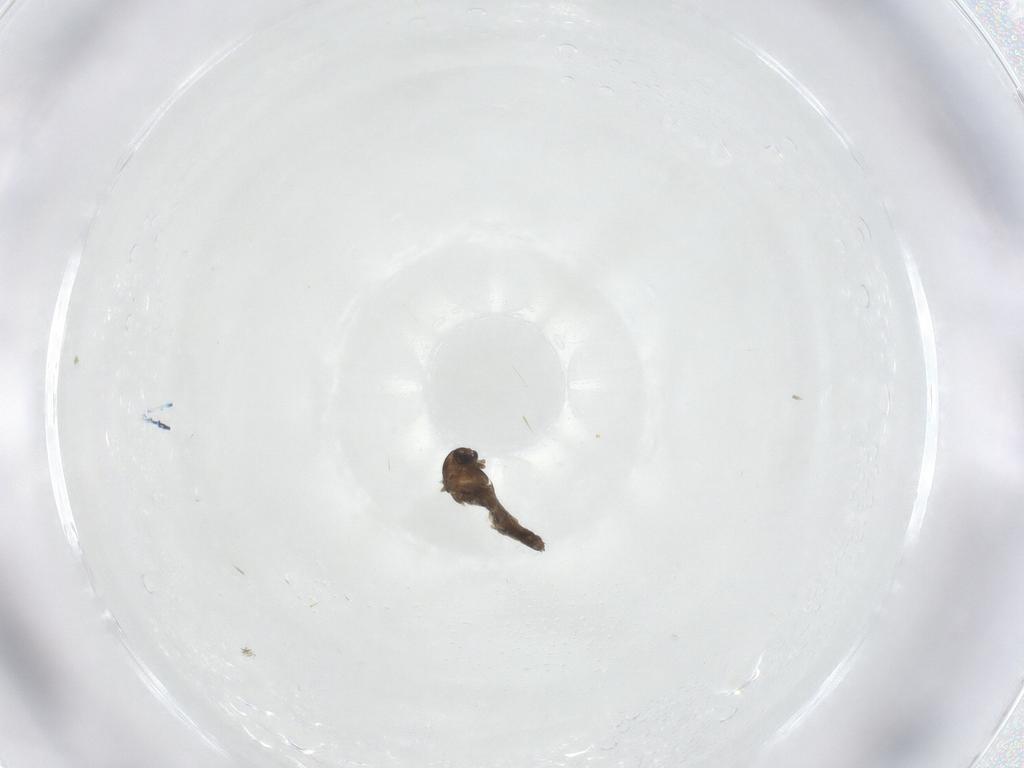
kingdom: Animalia
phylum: Arthropoda
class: Insecta
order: Diptera
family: Chironomidae
